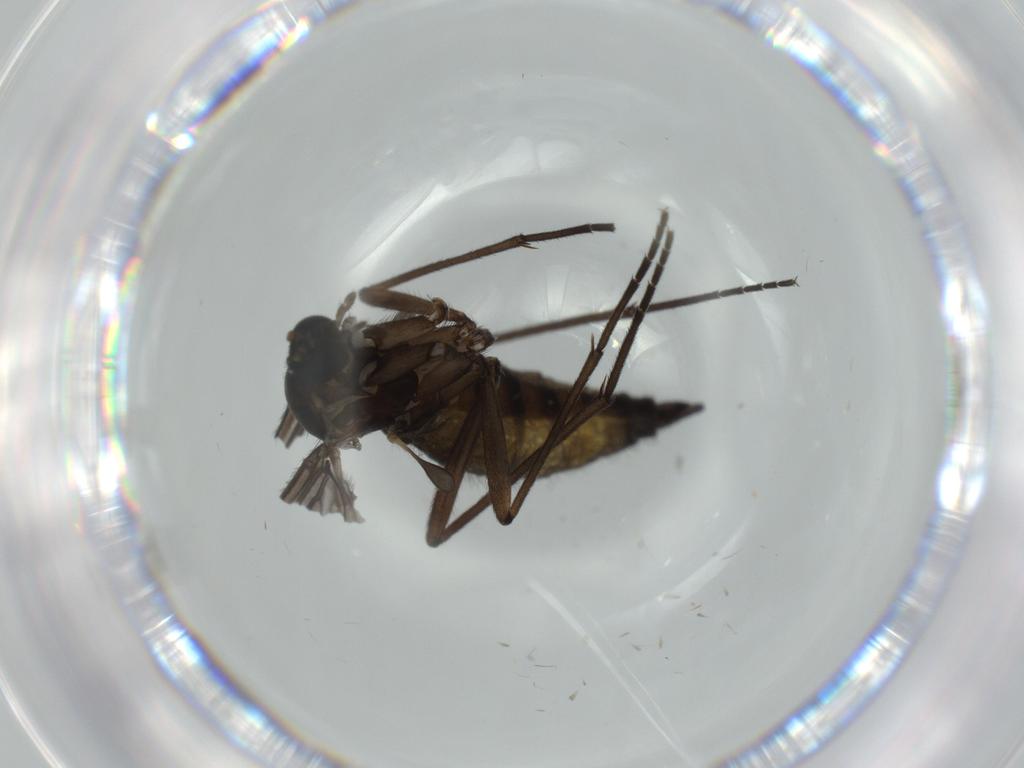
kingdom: Animalia
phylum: Arthropoda
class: Insecta
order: Diptera
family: Sciaridae
